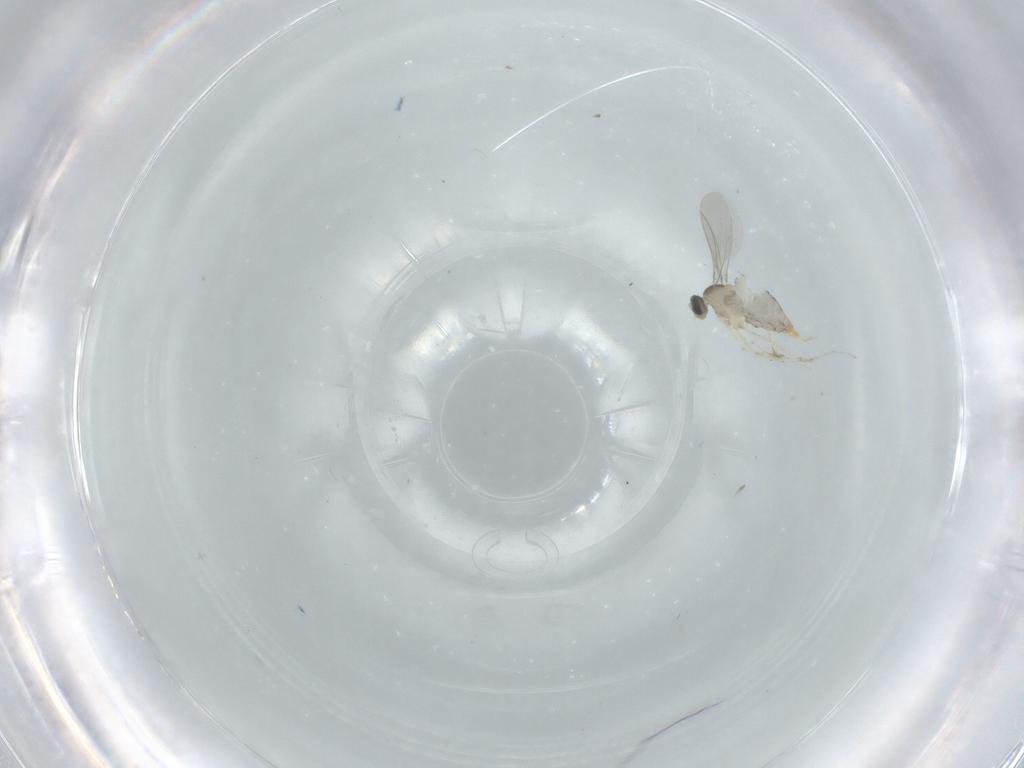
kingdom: Animalia
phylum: Arthropoda
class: Insecta
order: Diptera
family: Cecidomyiidae
